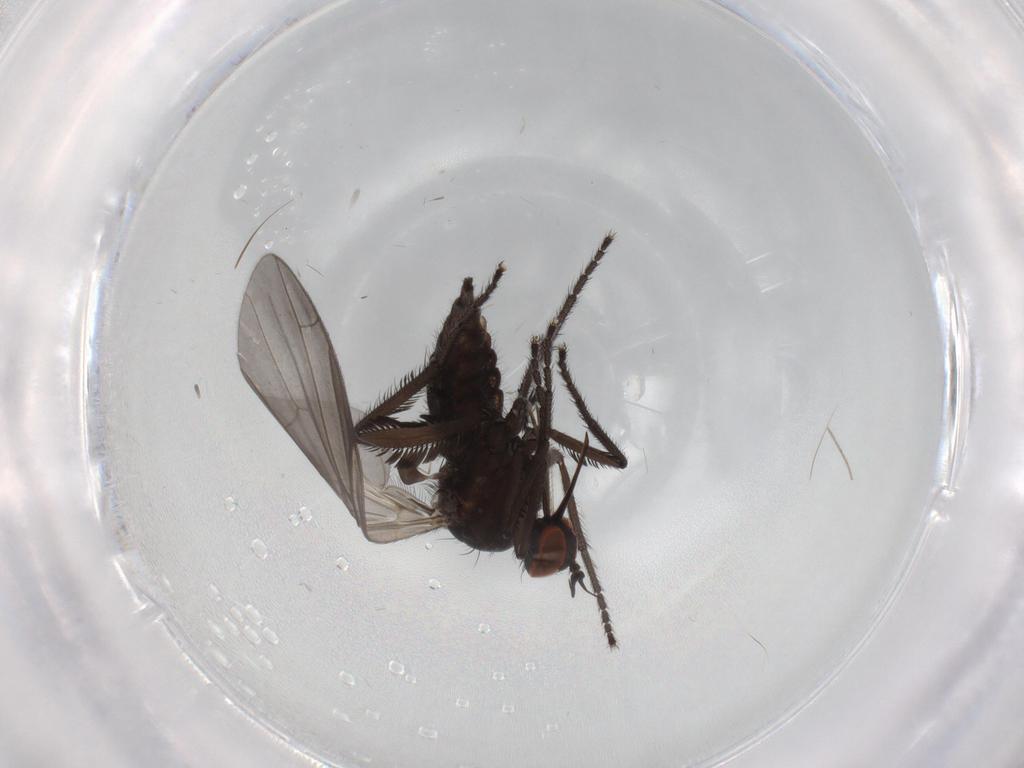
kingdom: Animalia
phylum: Arthropoda
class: Insecta
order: Diptera
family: Empididae
